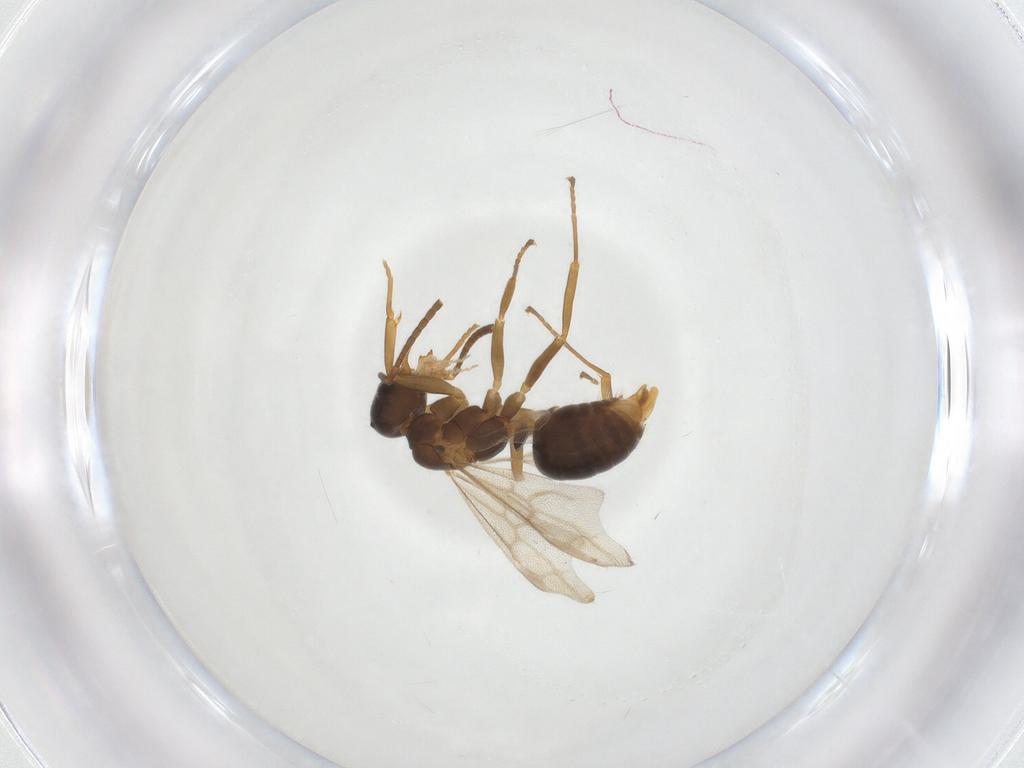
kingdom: Animalia
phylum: Arthropoda
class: Insecta
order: Hymenoptera
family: Formicidae
